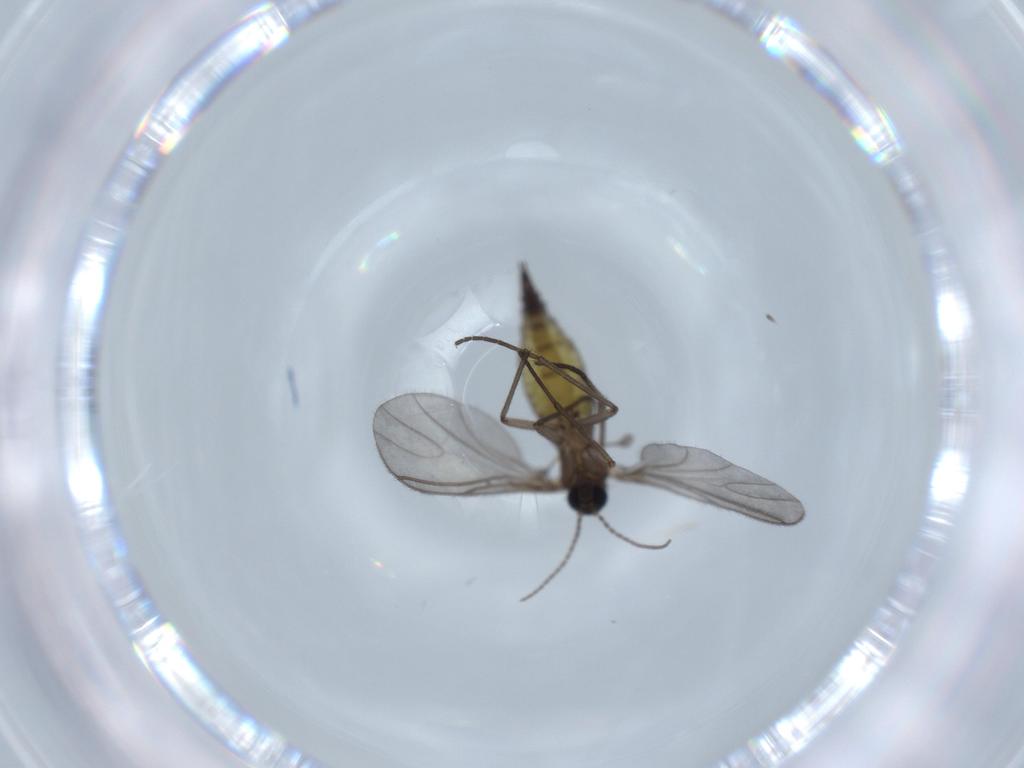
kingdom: Animalia
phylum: Arthropoda
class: Insecta
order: Diptera
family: Sciaridae
